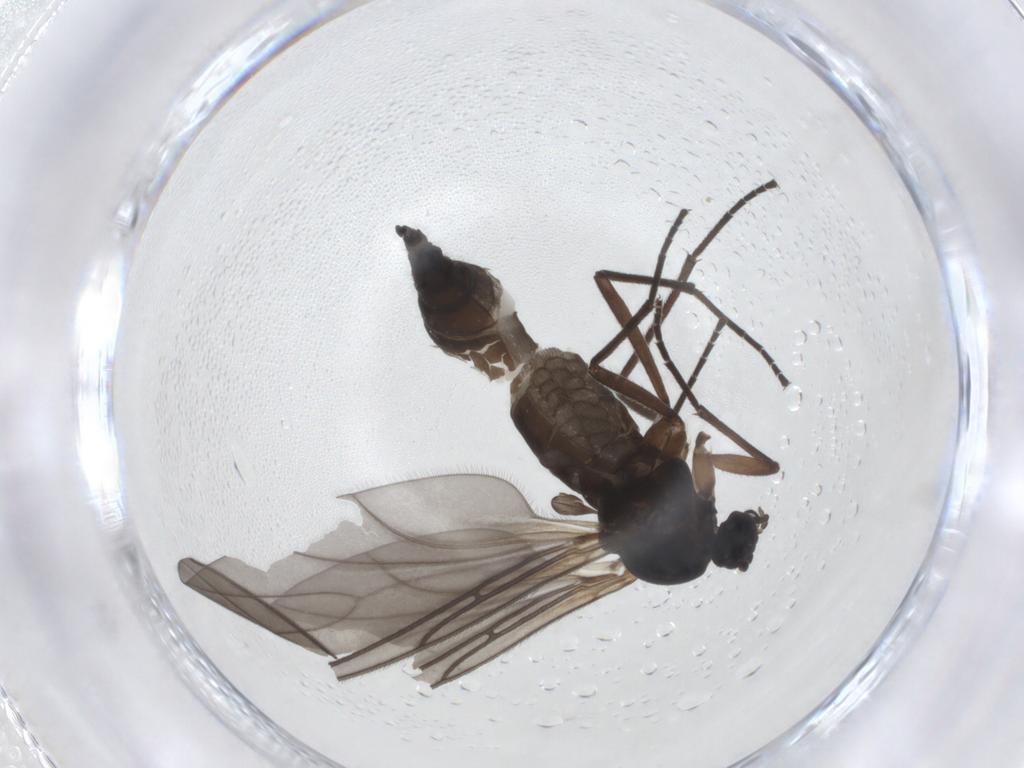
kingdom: Animalia
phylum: Arthropoda
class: Insecta
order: Diptera
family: Sciaridae
